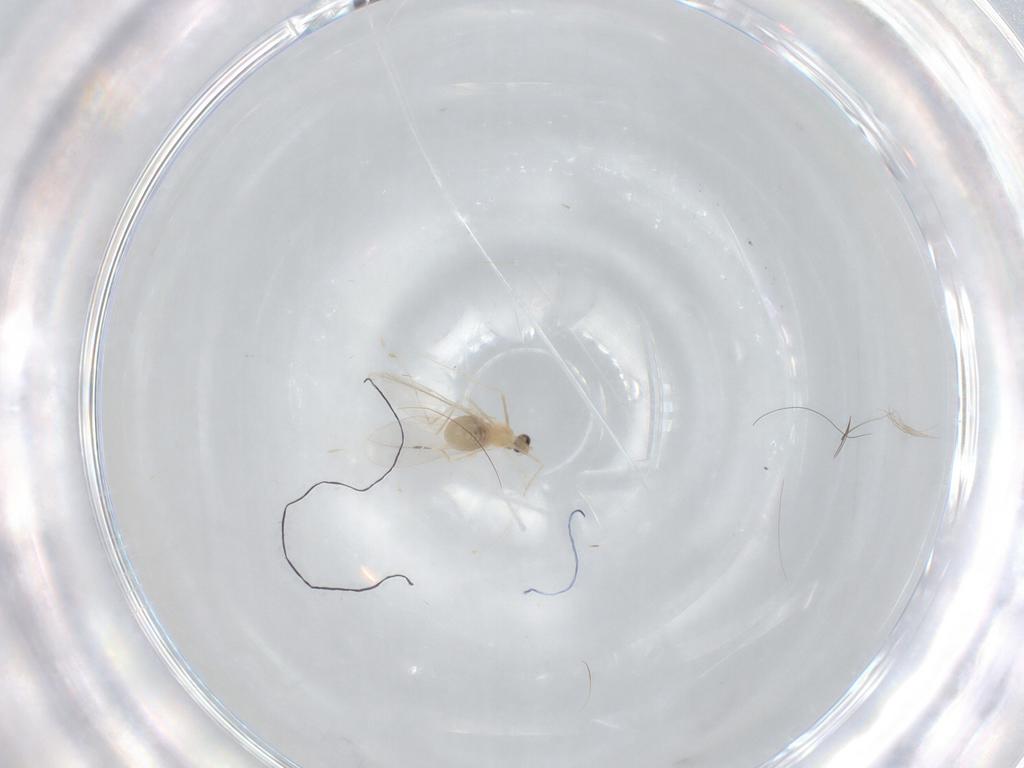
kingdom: Animalia
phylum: Arthropoda
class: Insecta
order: Diptera
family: Cecidomyiidae
